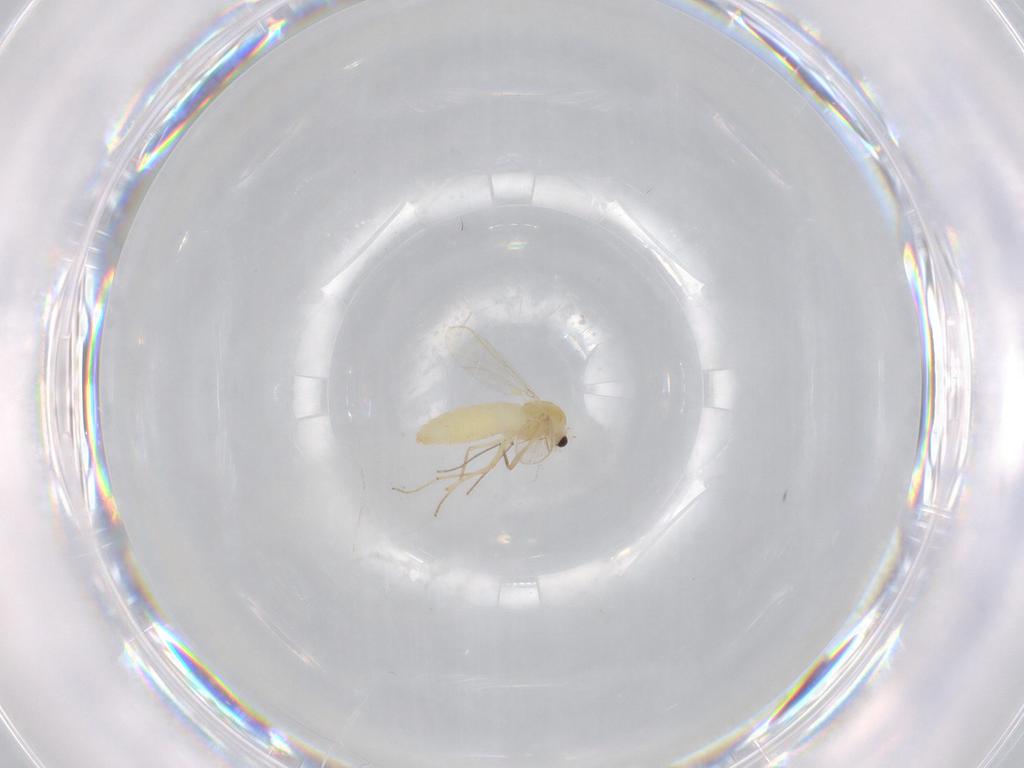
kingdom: Animalia
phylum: Arthropoda
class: Insecta
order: Diptera
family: Chironomidae
